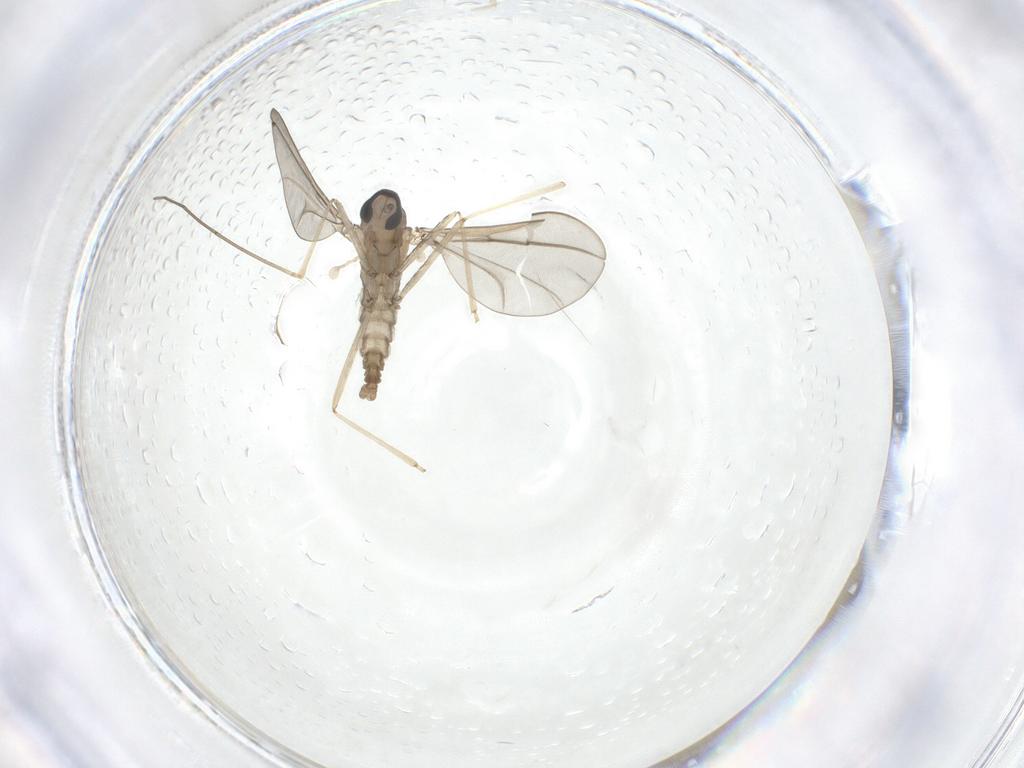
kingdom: Animalia
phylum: Arthropoda
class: Insecta
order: Diptera
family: Cecidomyiidae
